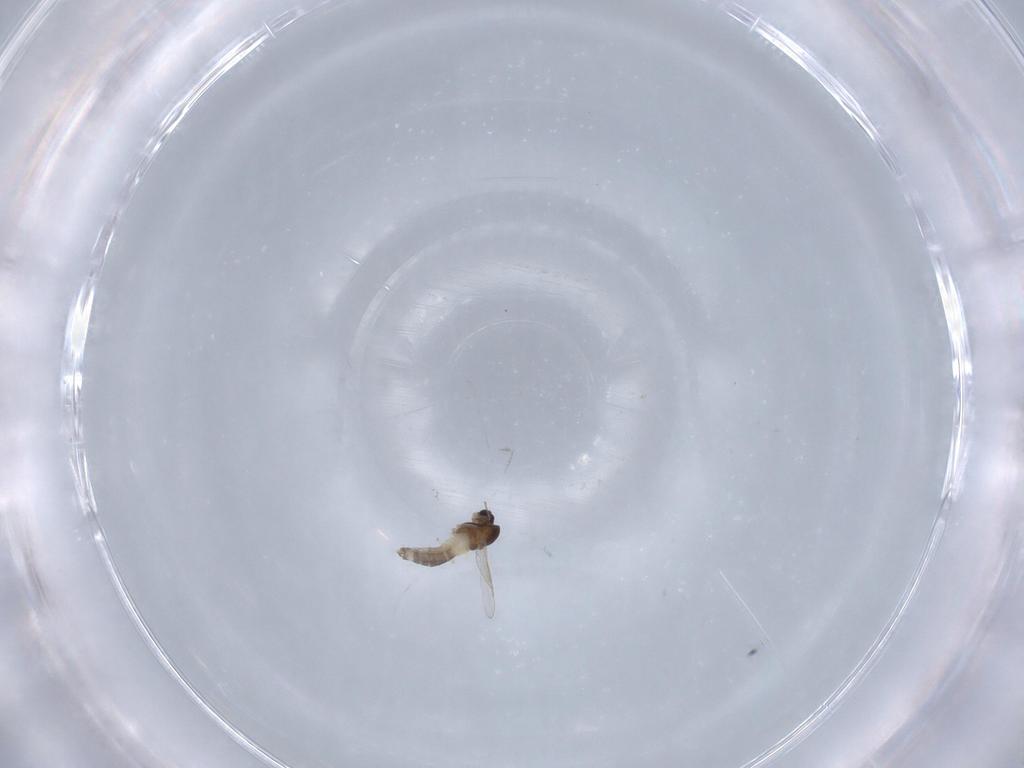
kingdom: Animalia
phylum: Arthropoda
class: Insecta
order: Diptera
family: Chironomidae
